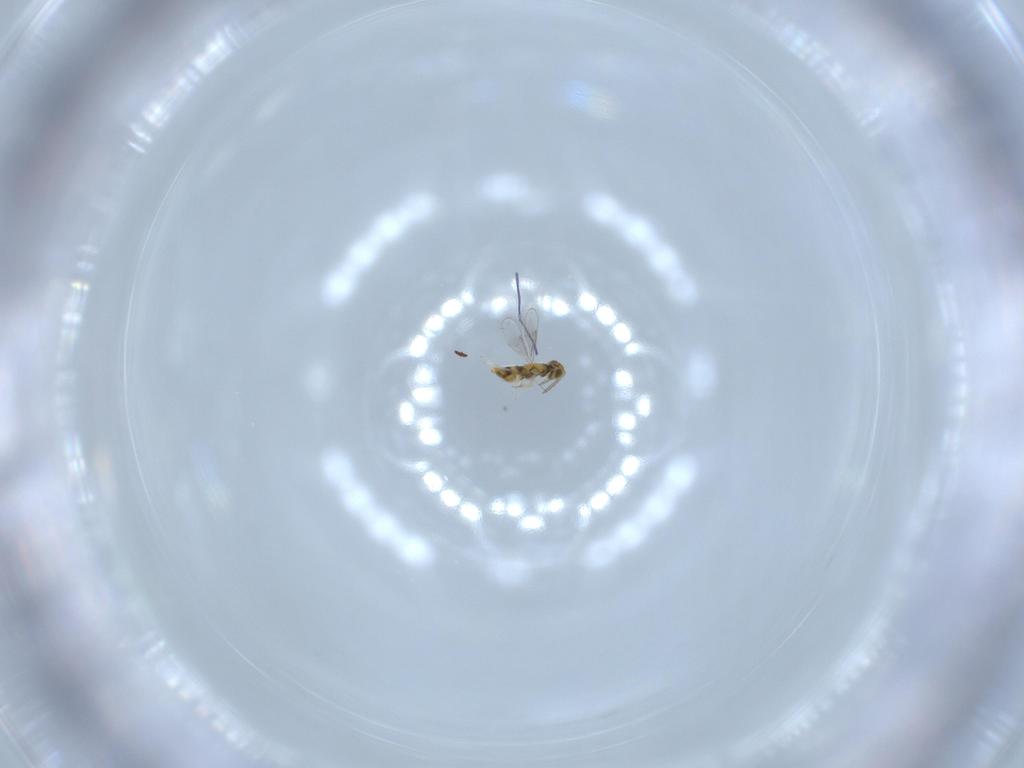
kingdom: Animalia
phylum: Arthropoda
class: Insecta
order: Hymenoptera
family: Aphelinidae
